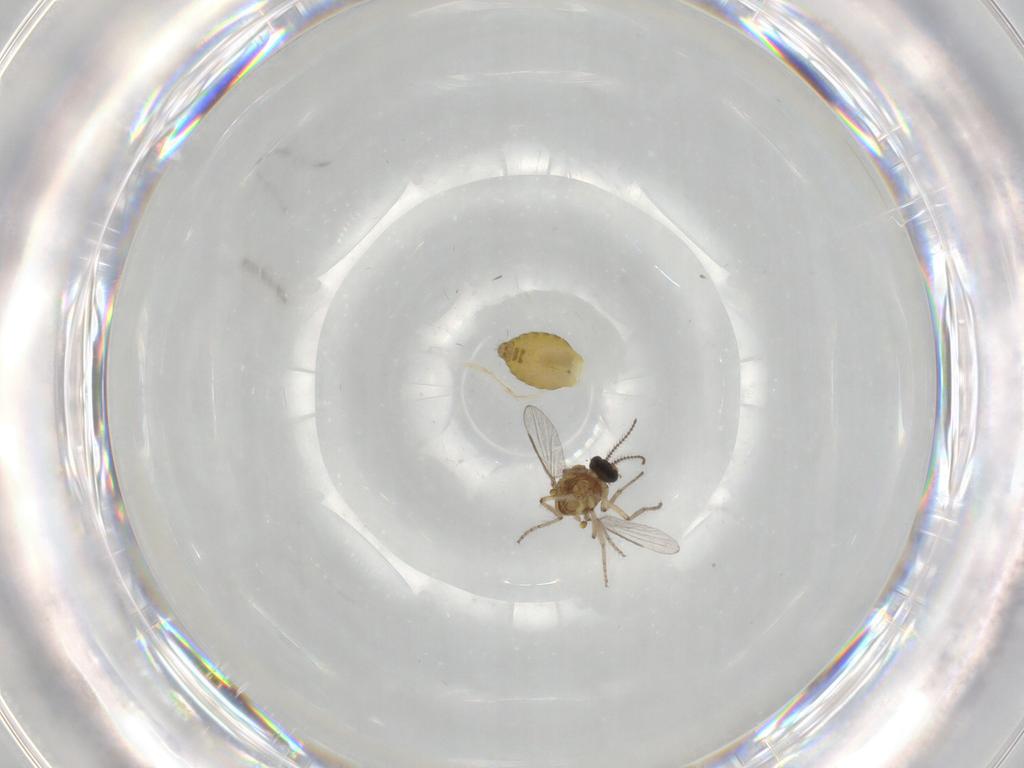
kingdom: Animalia
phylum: Arthropoda
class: Insecta
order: Diptera
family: Ceratopogonidae
